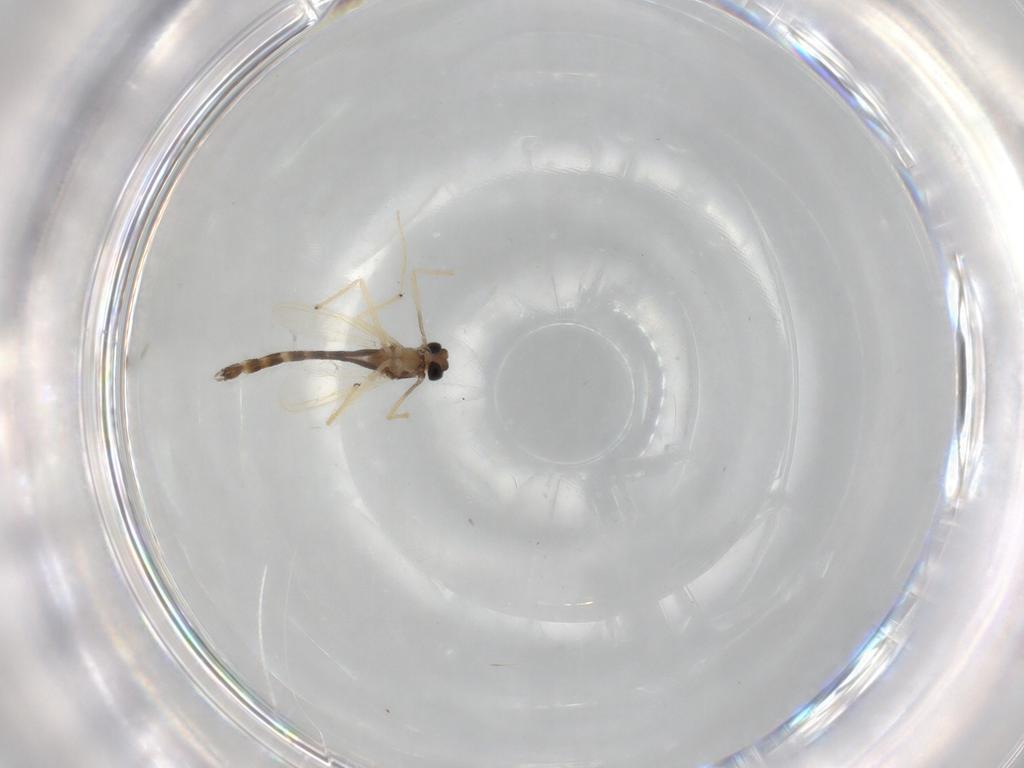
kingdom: Animalia
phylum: Arthropoda
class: Insecta
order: Diptera
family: Chironomidae
